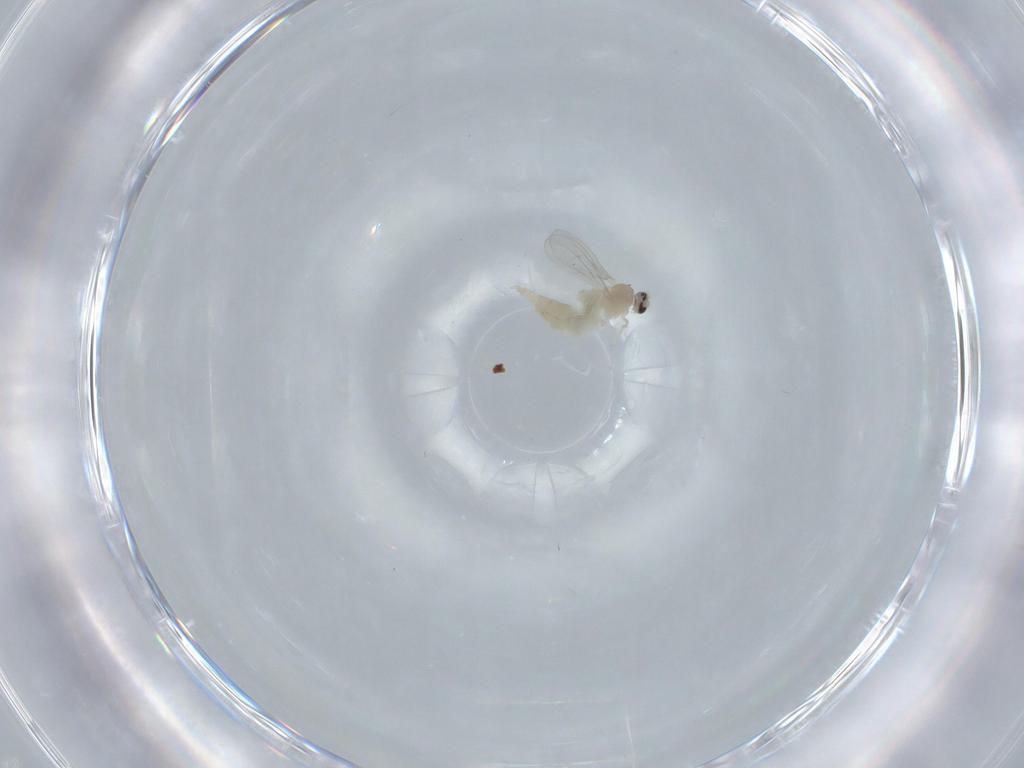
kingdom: Animalia
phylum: Arthropoda
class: Insecta
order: Diptera
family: Cecidomyiidae
